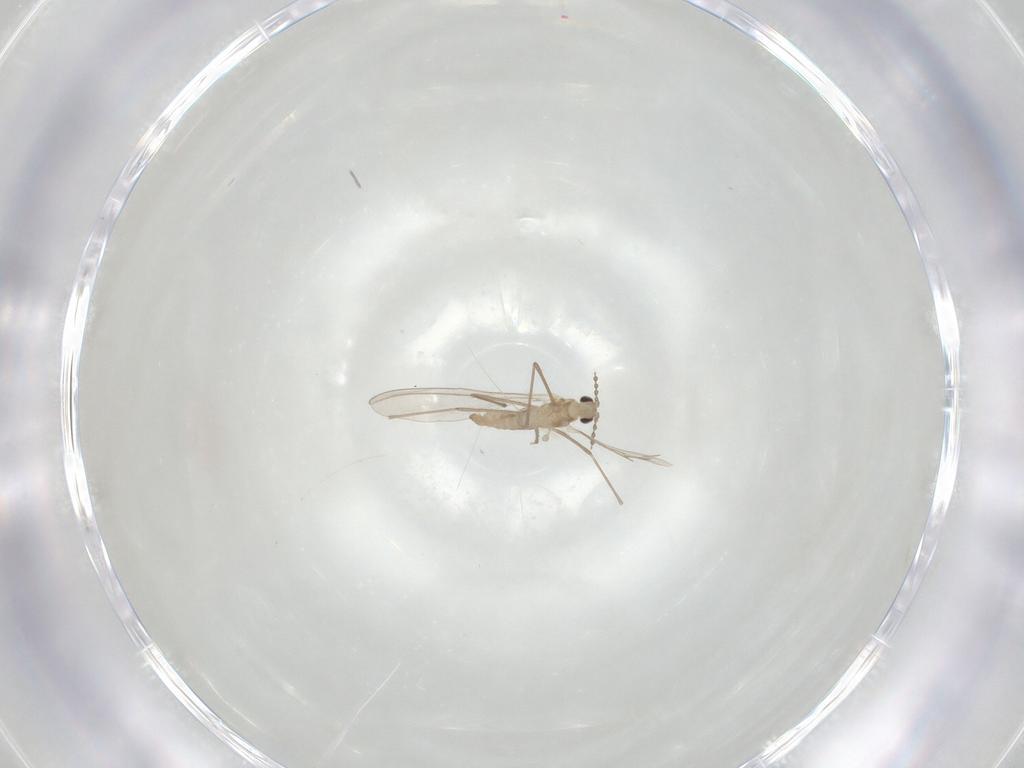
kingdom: Animalia
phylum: Arthropoda
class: Insecta
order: Diptera
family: Cecidomyiidae
